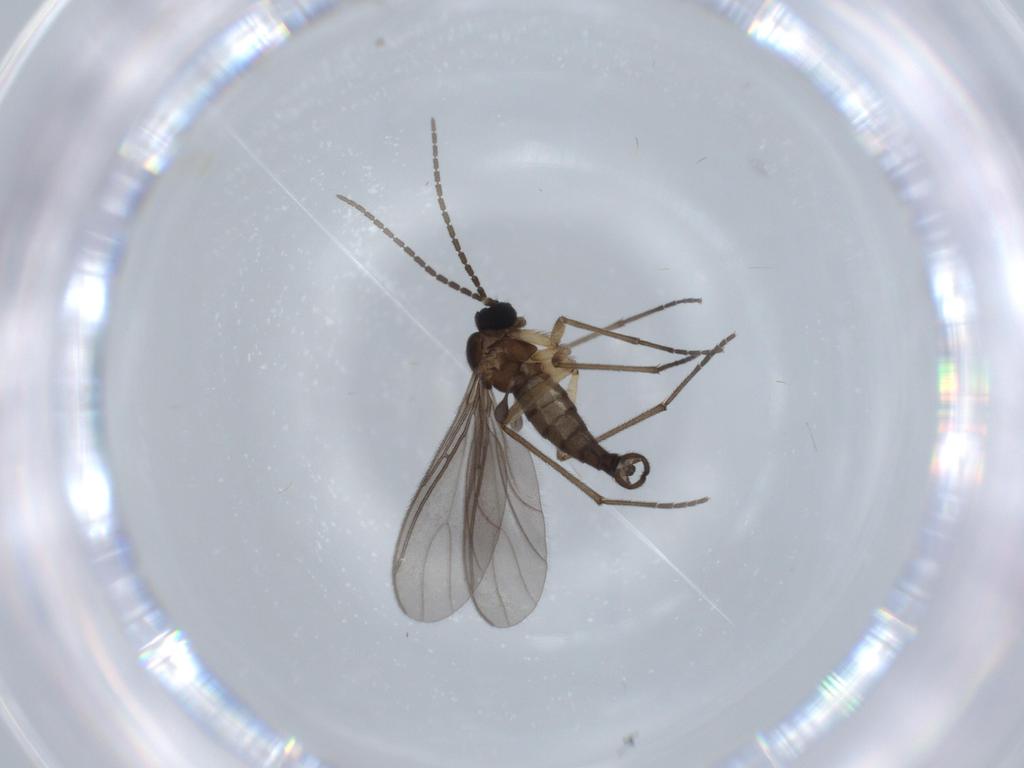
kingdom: Animalia
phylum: Arthropoda
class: Insecta
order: Diptera
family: Sciaridae
